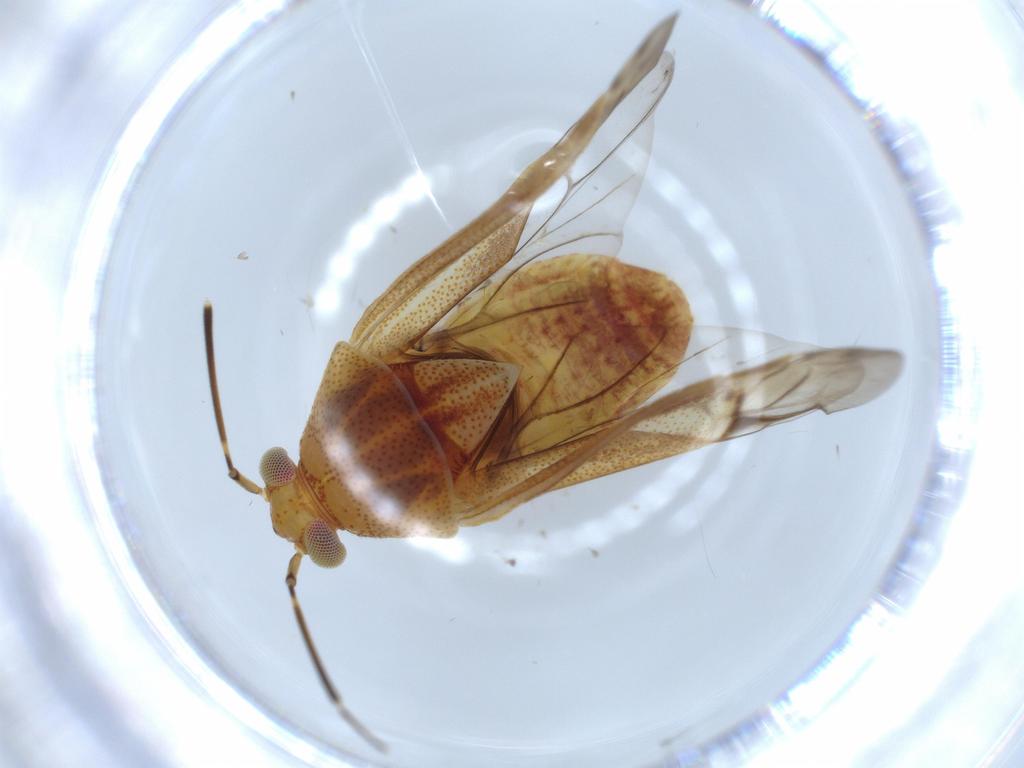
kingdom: Animalia
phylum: Arthropoda
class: Insecta
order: Hemiptera
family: Miridae
